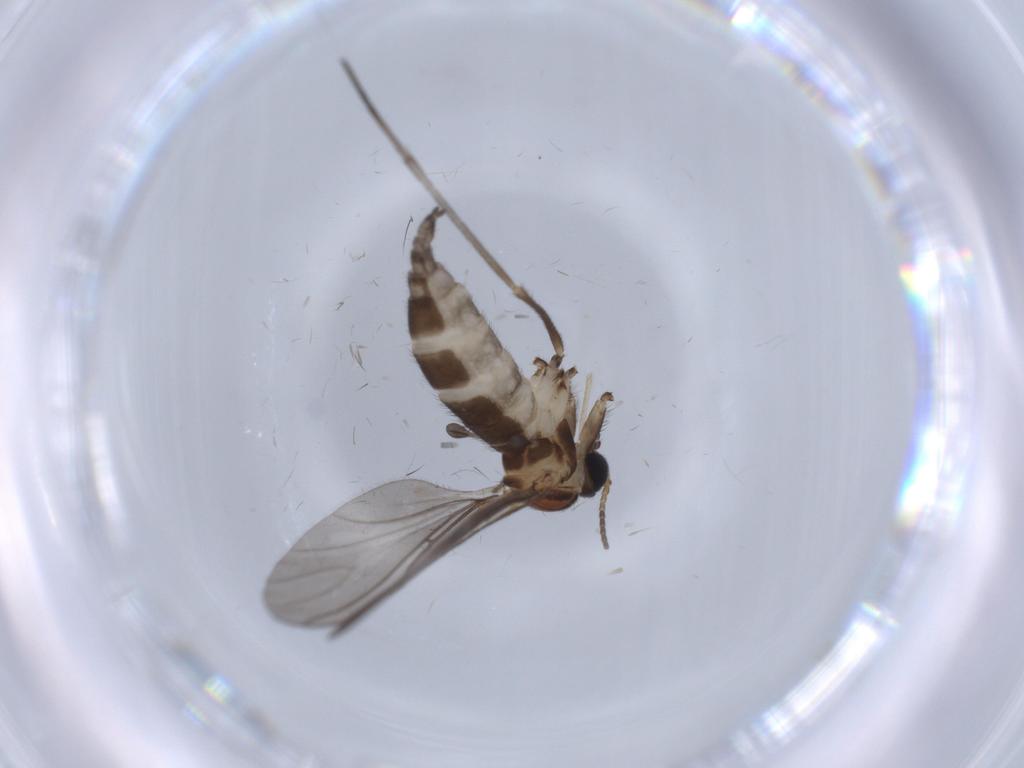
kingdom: Animalia
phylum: Arthropoda
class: Insecta
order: Diptera
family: Sciaridae
